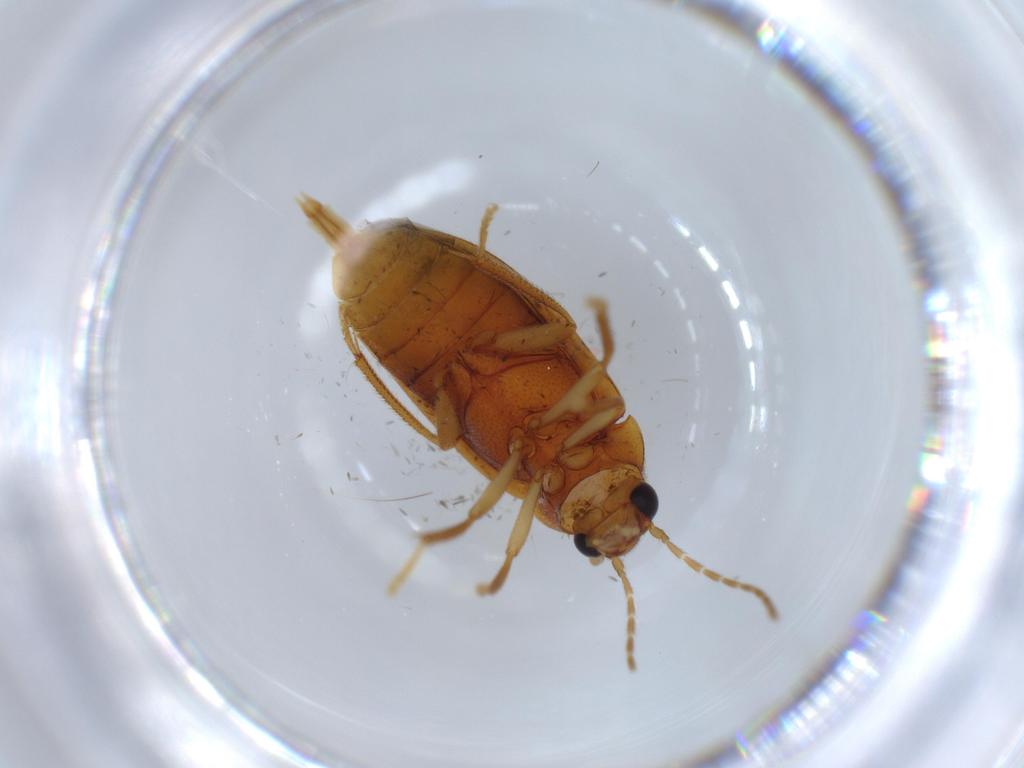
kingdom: Animalia
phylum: Arthropoda
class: Insecta
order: Coleoptera
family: Ptilodactylidae
